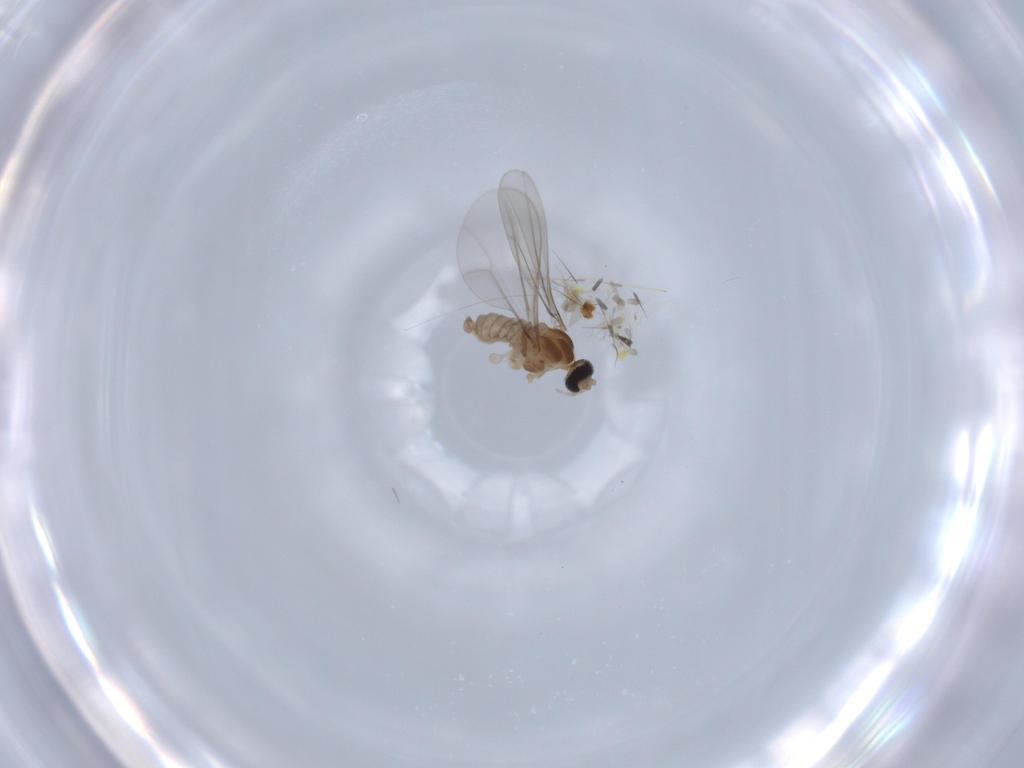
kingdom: Animalia
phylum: Arthropoda
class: Insecta
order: Diptera
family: Cecidomyiidae
